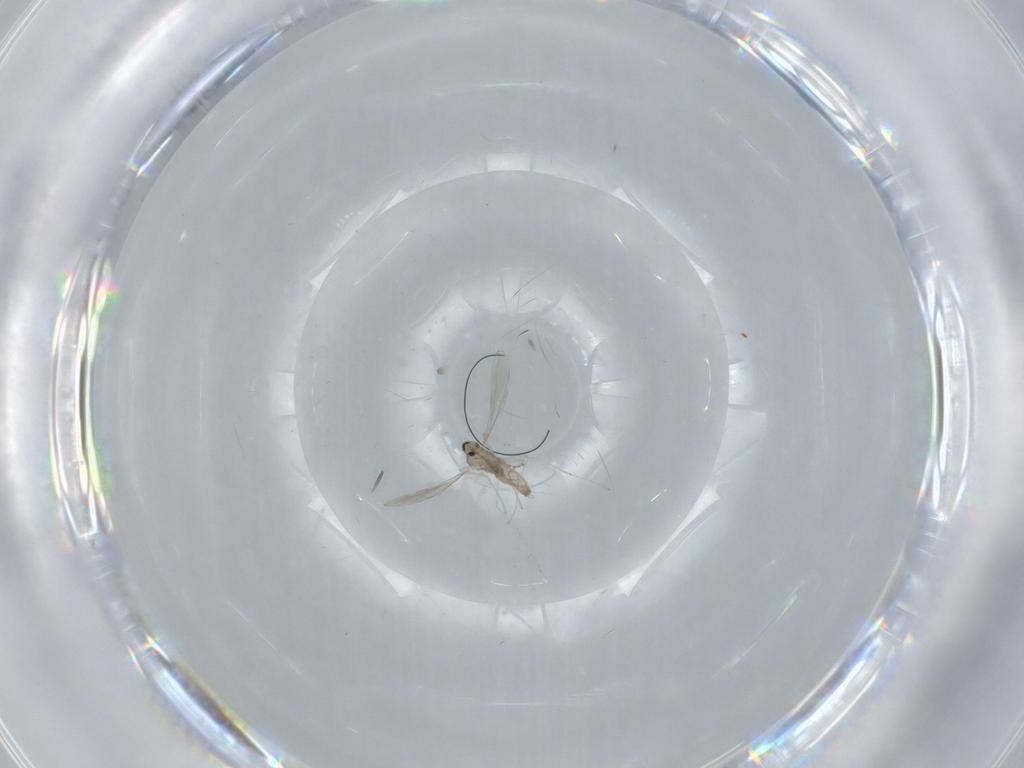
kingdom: Animalia
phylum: Arthropoda
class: Insecta
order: Diptera
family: Cecidomyiidae
